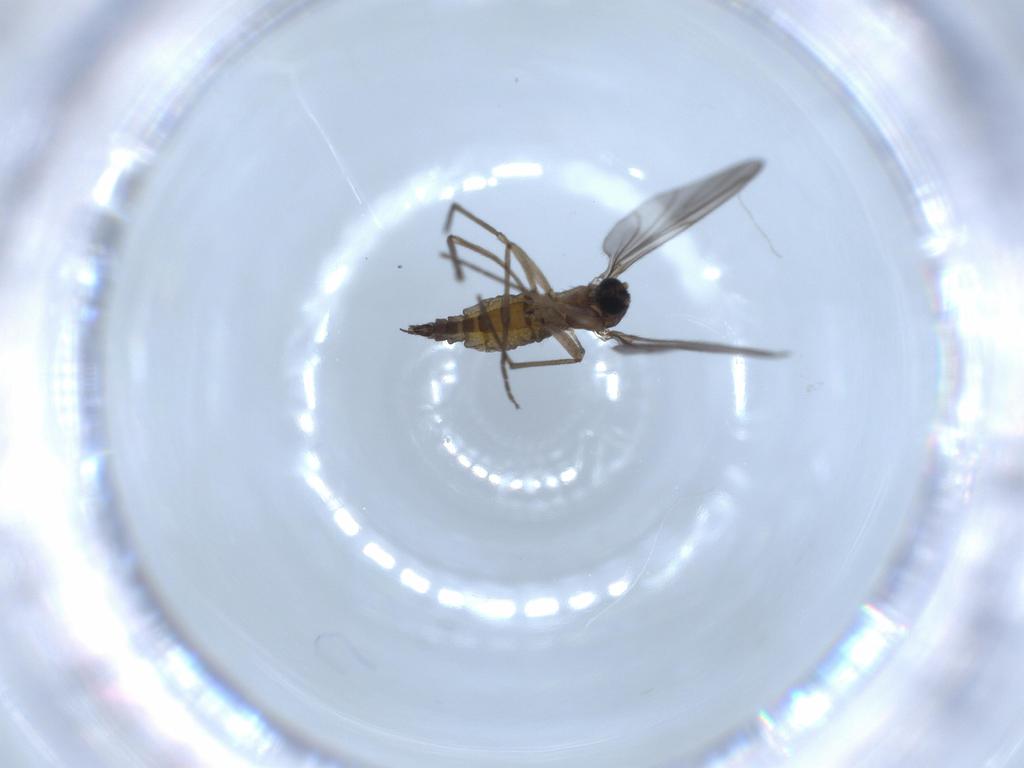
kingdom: Animalia
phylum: Arthropoda
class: Insecta
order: Diptera
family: Sciaridae
